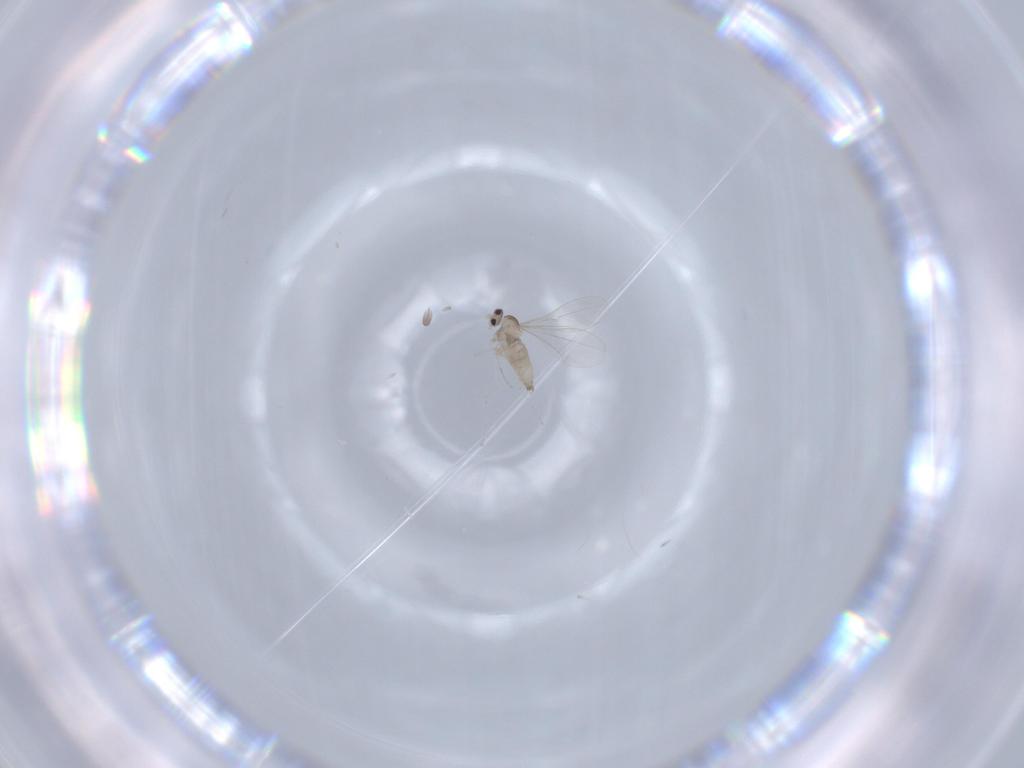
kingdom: Animalia
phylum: Arthropoda
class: Insecta
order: Diptera
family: Cecidomyiidae
